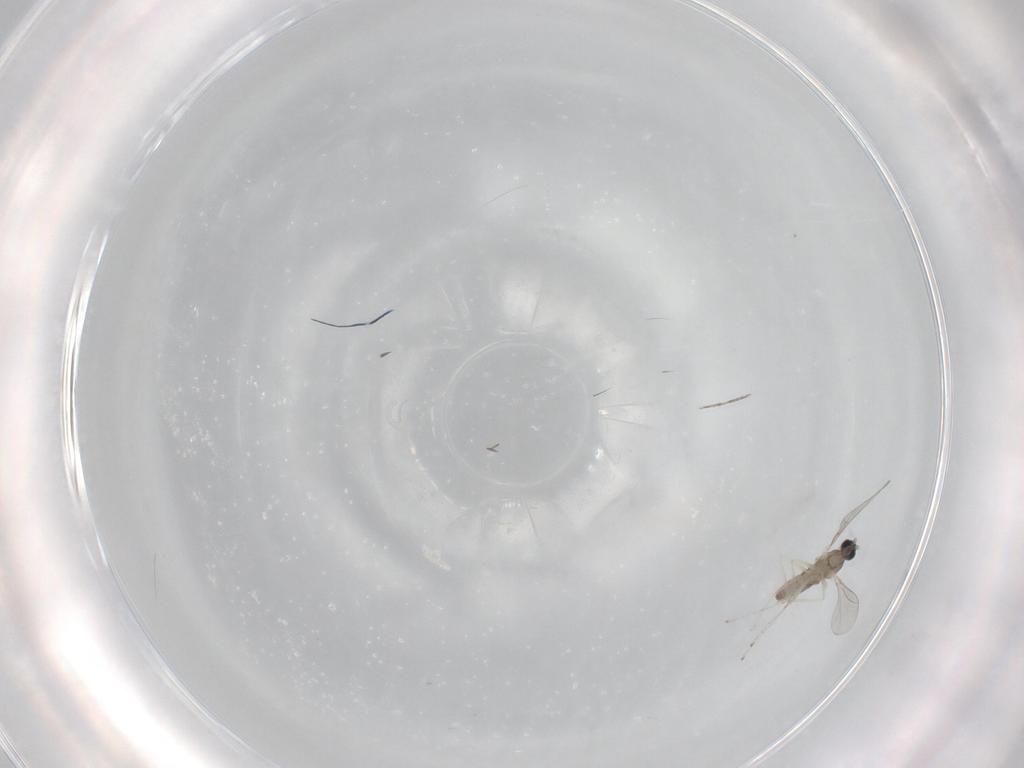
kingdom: Animalia
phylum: Arthropoda
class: Insecta
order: Diptera
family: Cecidomyiidae
